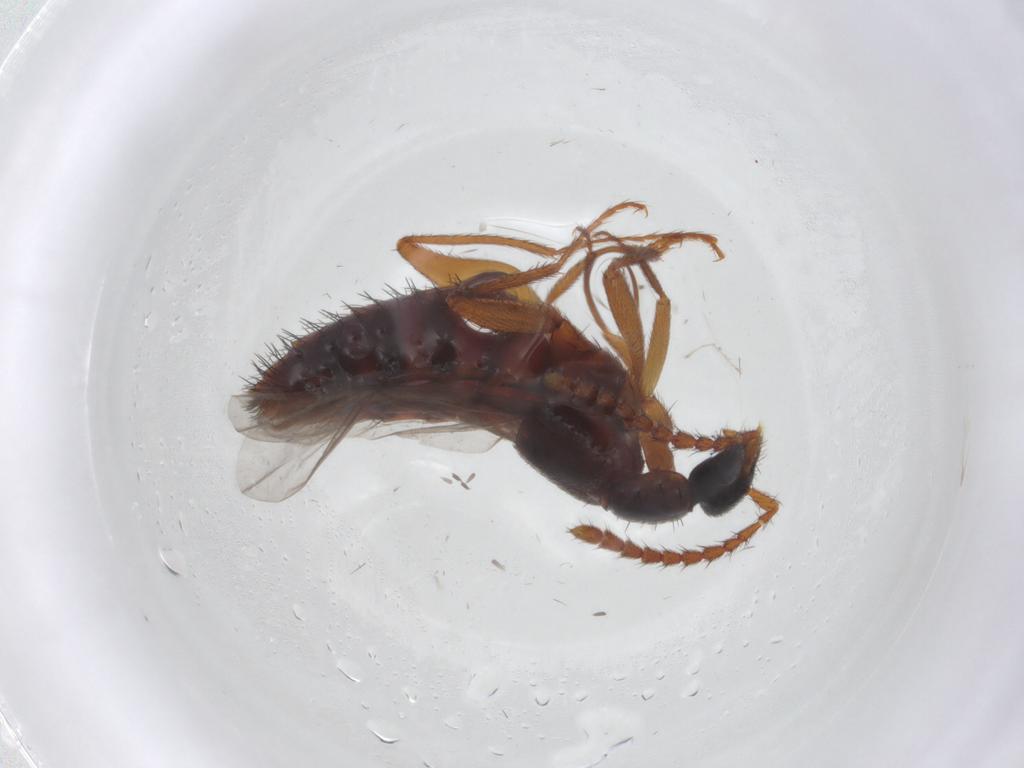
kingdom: Animalia
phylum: Arthropoda
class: Insecta
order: Coleoptera
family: Staphylinidae
